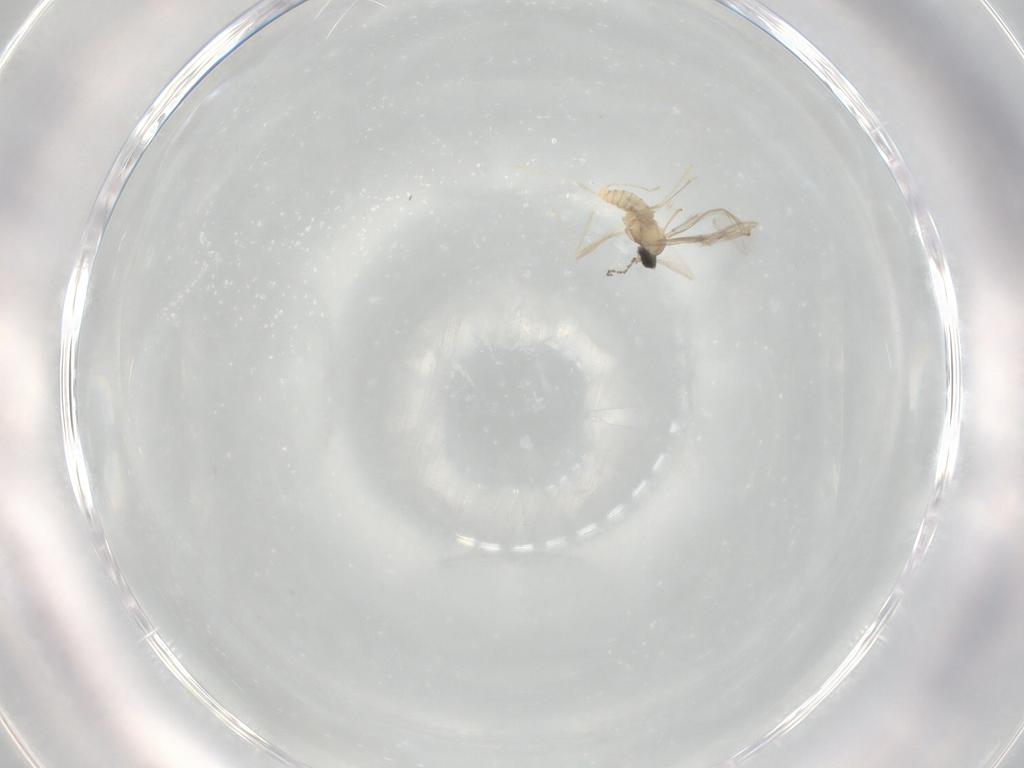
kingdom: Animalia
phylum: Arthropoda
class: Insecta
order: Diptera
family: Cecidomyiidae
